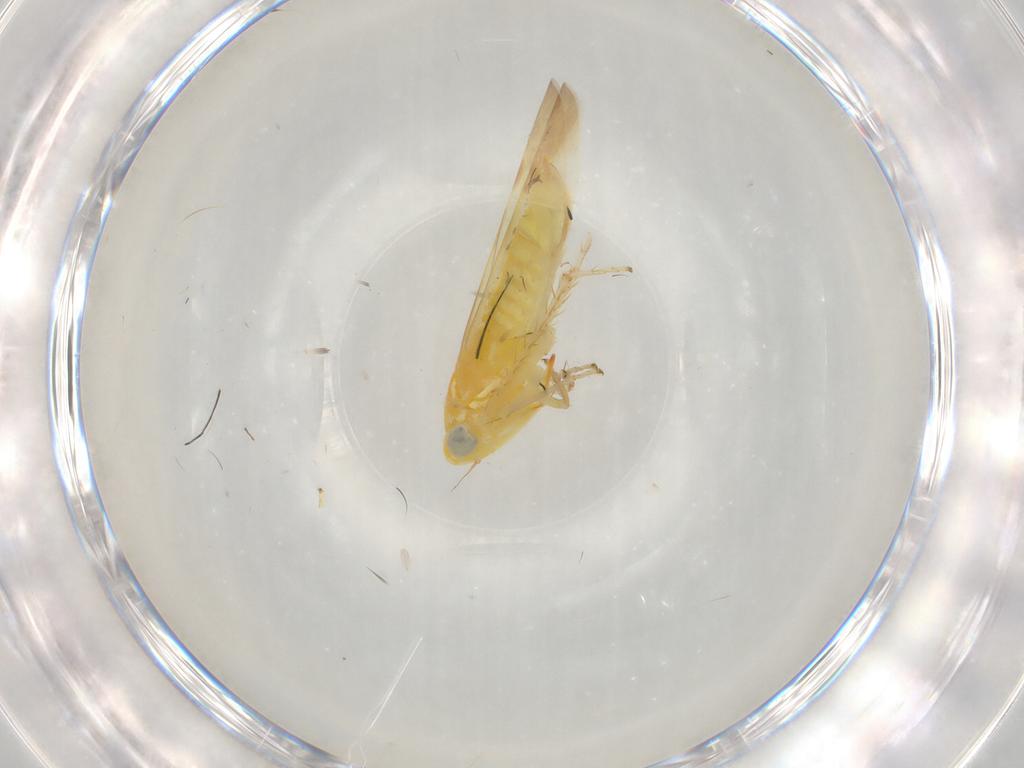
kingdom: Animalia
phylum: Arthropoda
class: Insecta
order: Hemiptera
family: Cicadellidae
